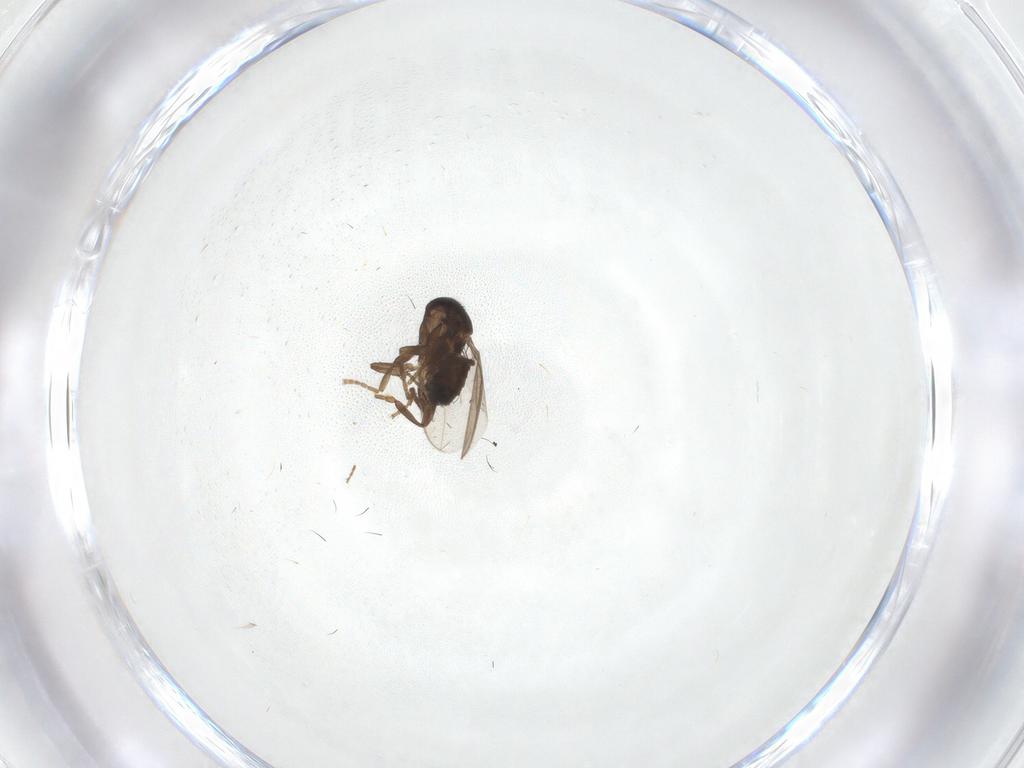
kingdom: Animalia
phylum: Arthropoda
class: Insecta
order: Diptera
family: Sphaeroceridae
